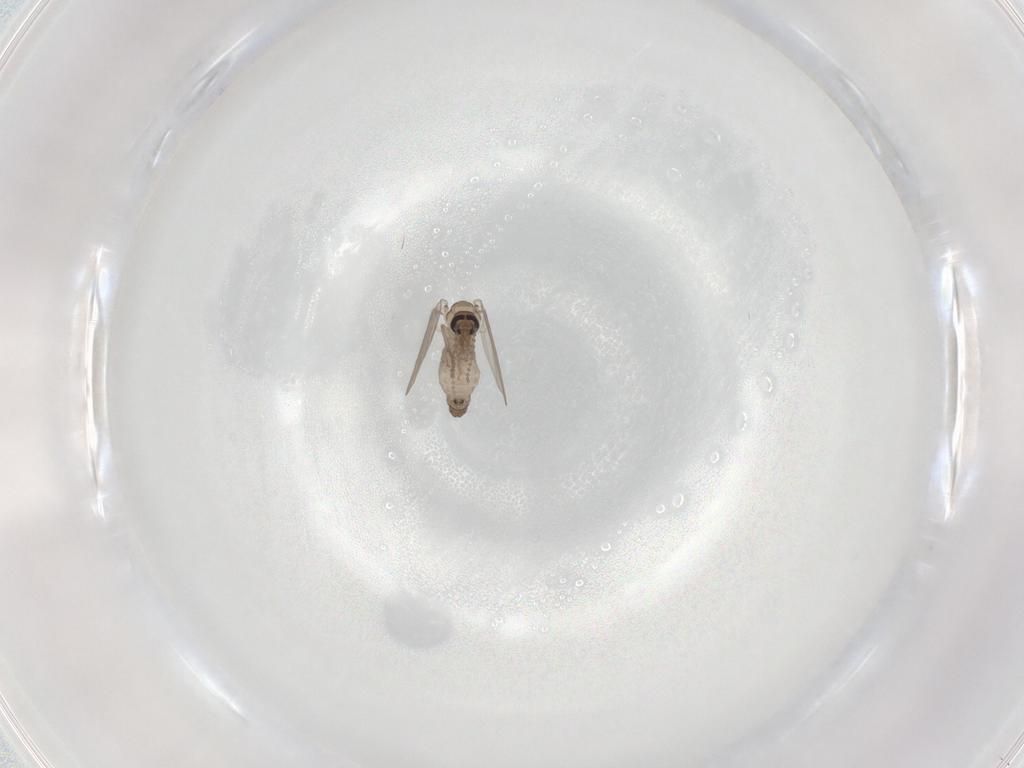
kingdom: Animalia
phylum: Arthropoda
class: Insecta
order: Diptera
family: Psychodidae
